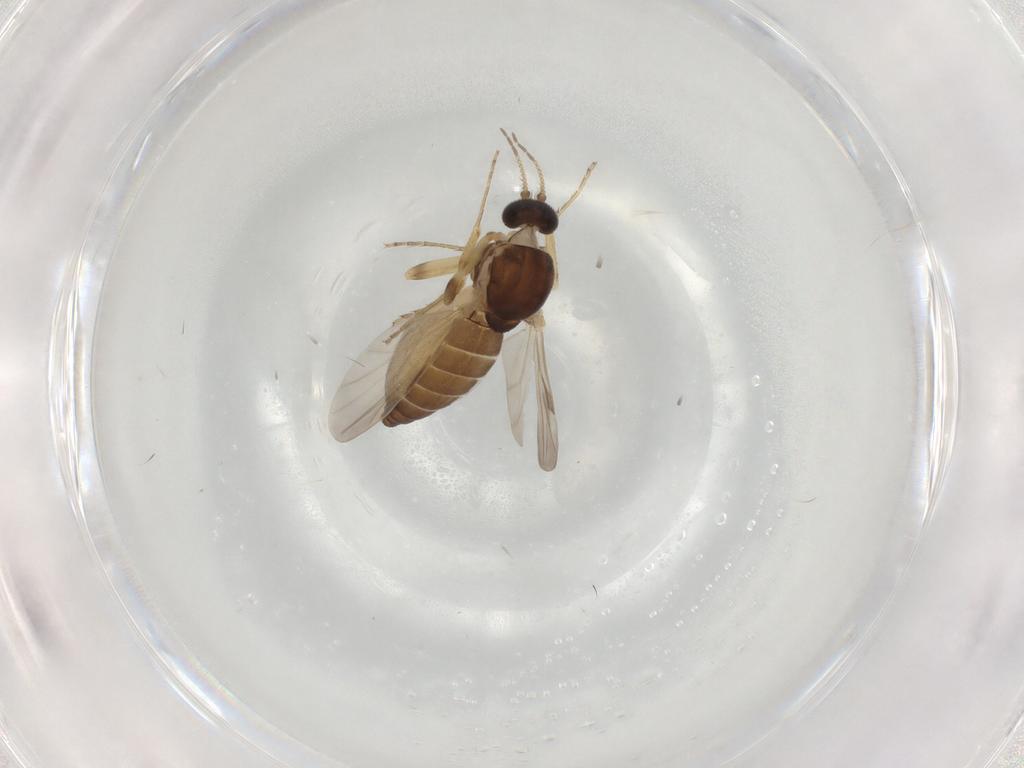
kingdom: Animalia
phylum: Arthropoda
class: Insecta
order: Diptera
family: Ceratopogonidae
